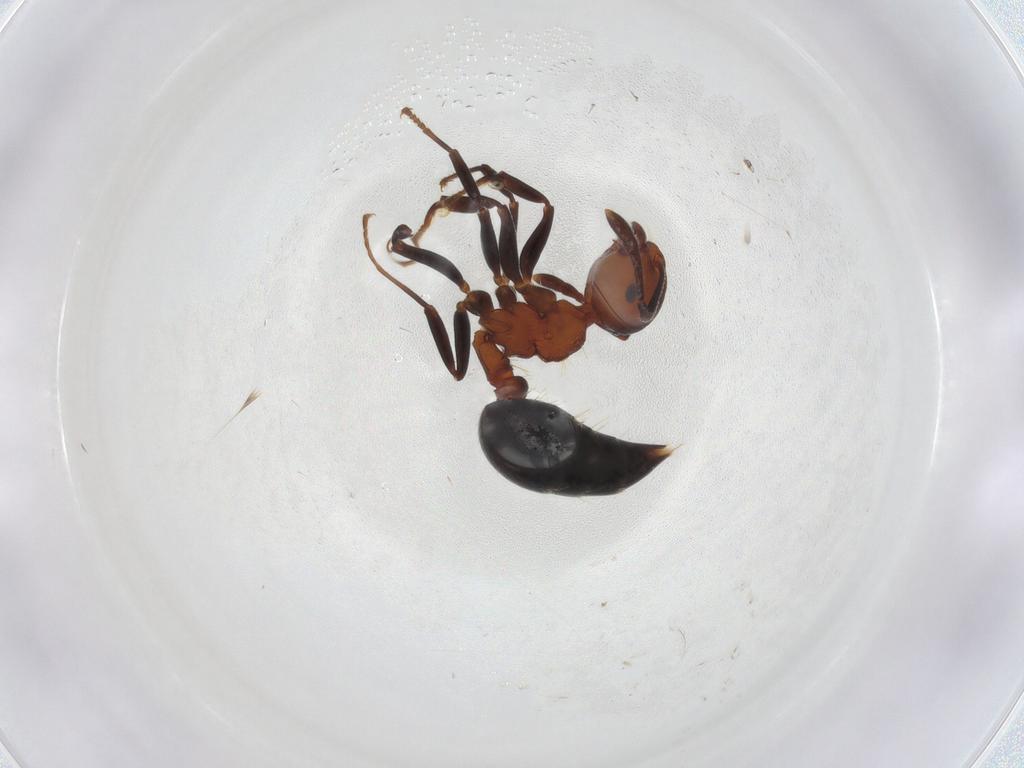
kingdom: Animalia
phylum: Arthropoda
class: Insecta
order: Hymenoptera
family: Formicidae
